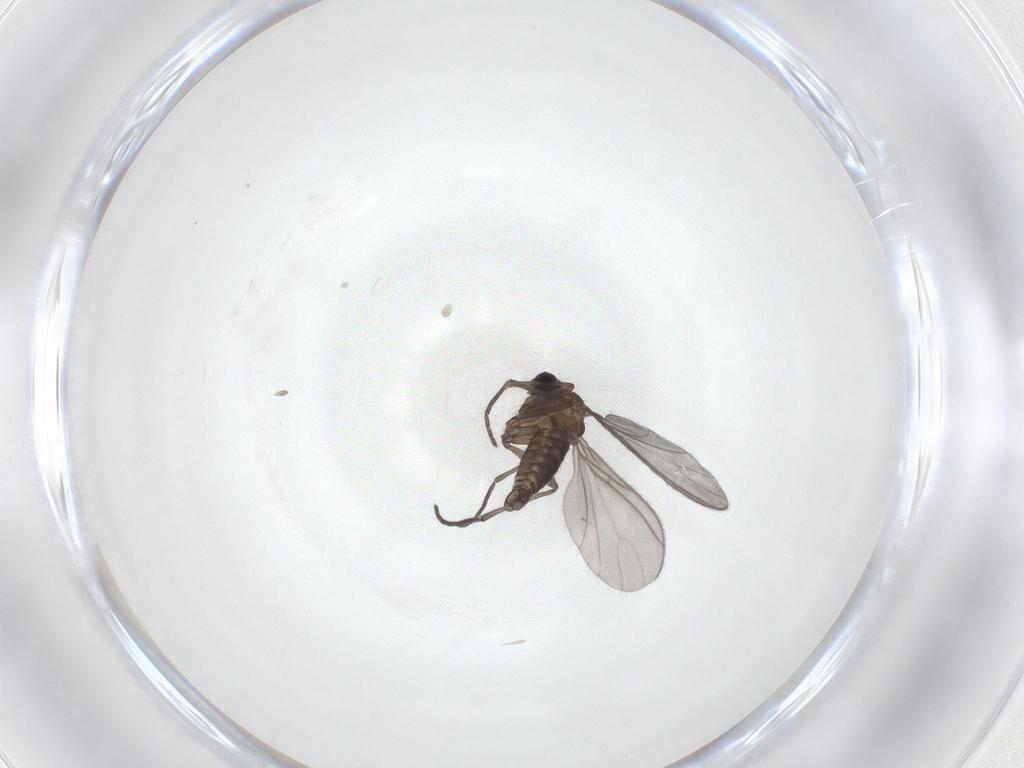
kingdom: Animalia
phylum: Arthropoda
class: Insecta
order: Diptera
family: Sciaridae
